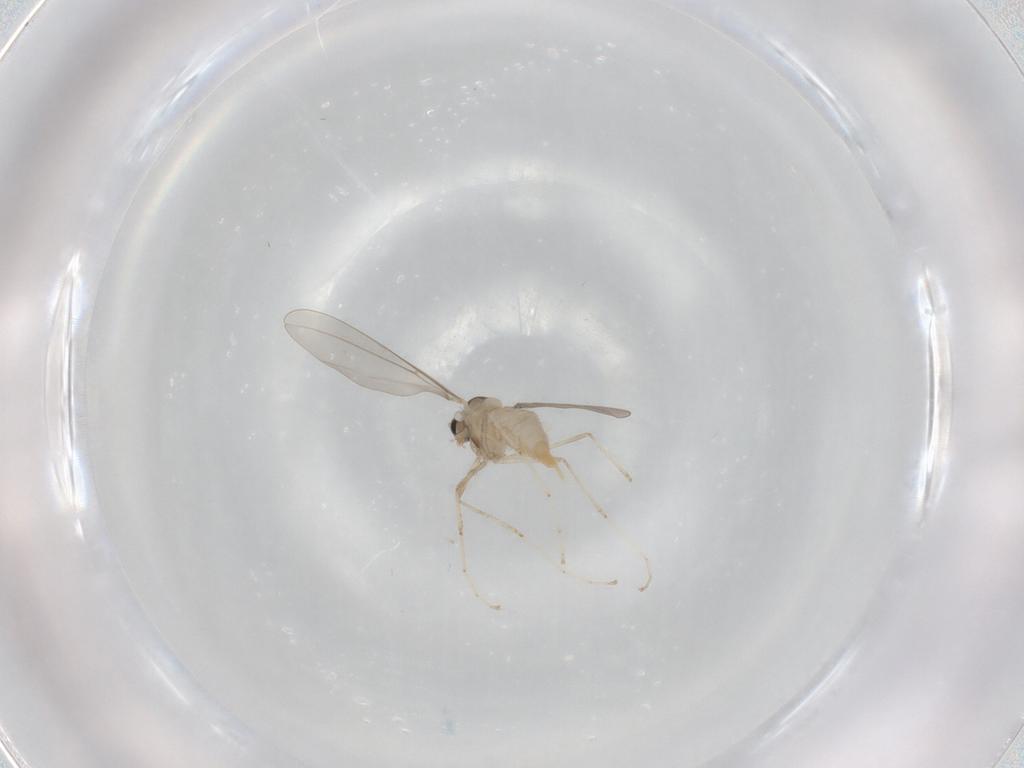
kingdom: Animalia
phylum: Arthropoda
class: Insecta
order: Diptera
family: Cecidomyiidae
